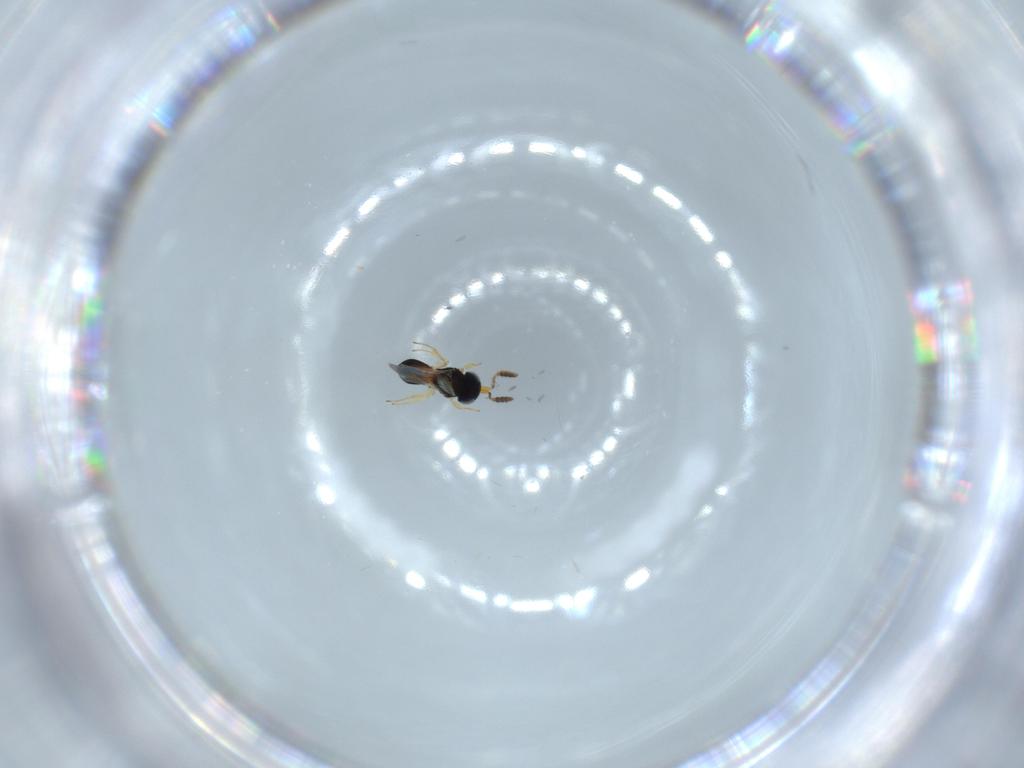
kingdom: Animalia
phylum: Arthropoda
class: Insecta
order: Hymenoptera
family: Scelionidae
